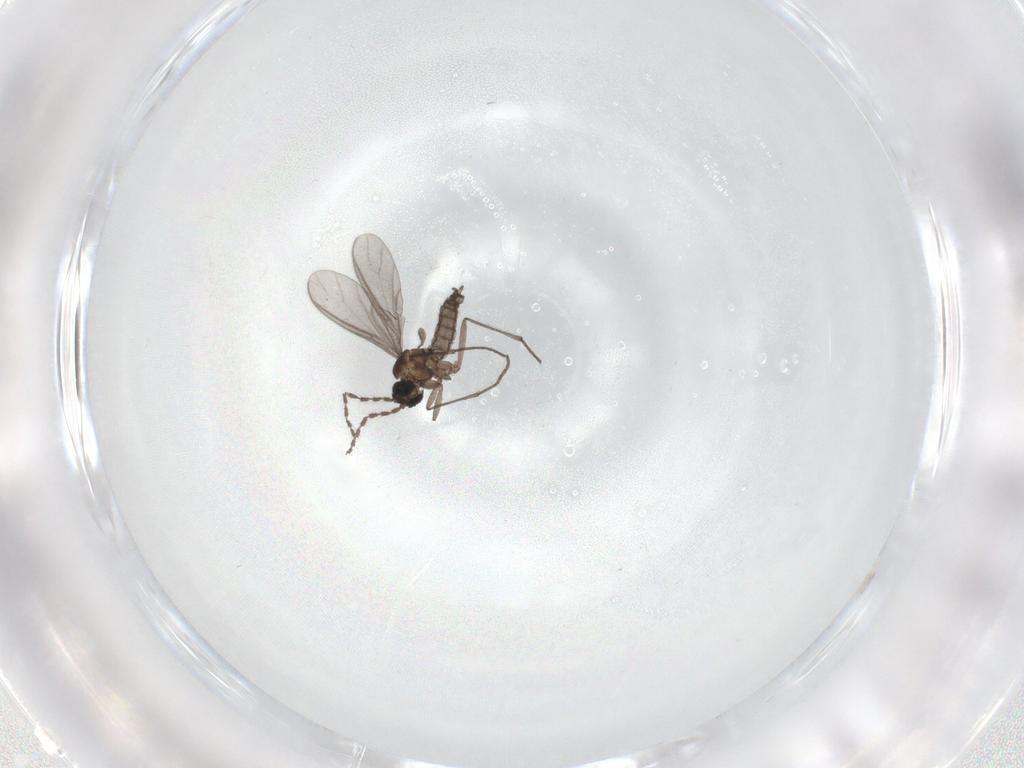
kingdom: Animalia
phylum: Arthropoda
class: Insecta
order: Diptera
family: Sciaridae
